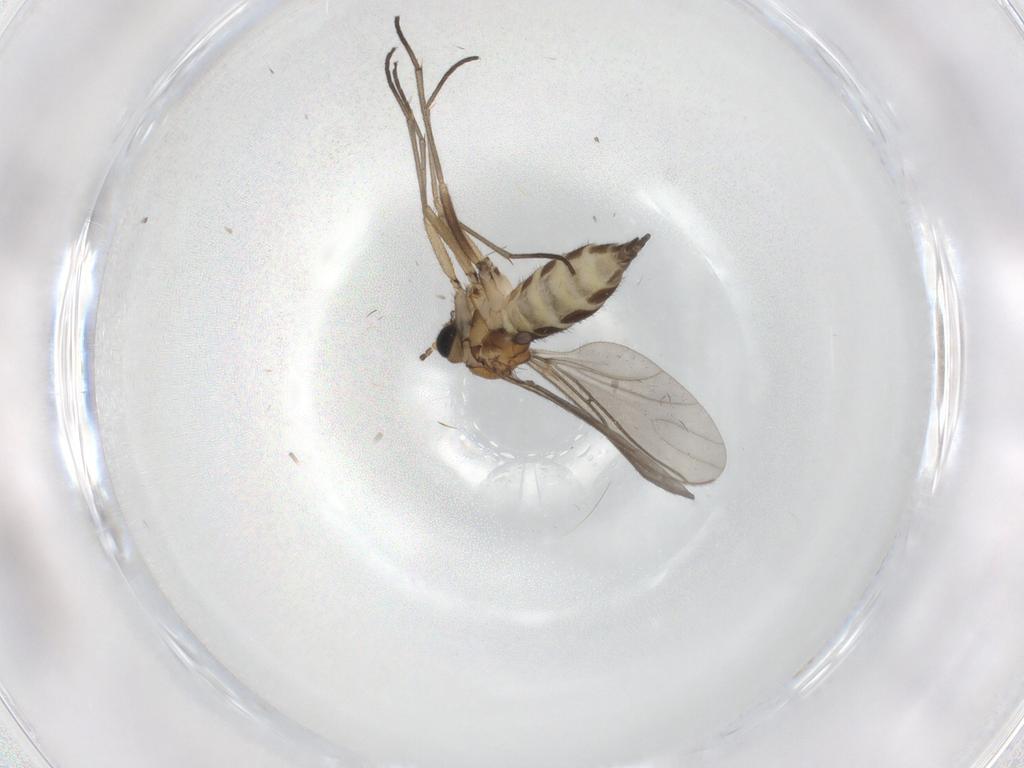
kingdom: Animalia
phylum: Arthropoda
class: Insecta
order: Diptera
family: Sciaridae
